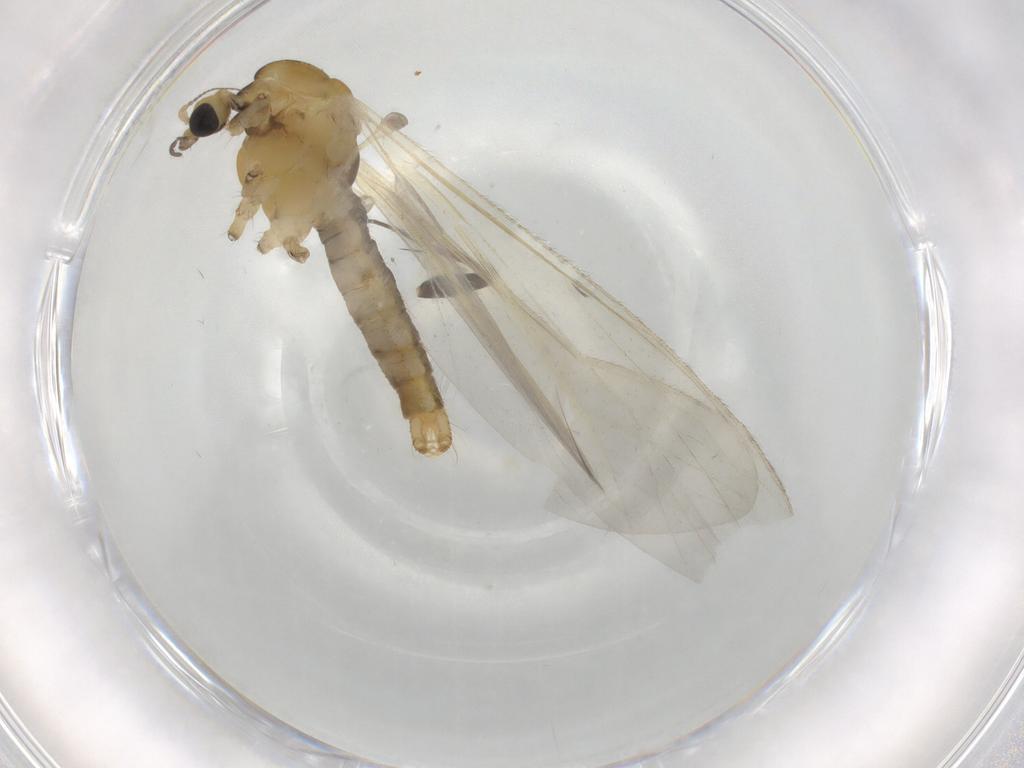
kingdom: Animalia
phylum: Arthropoda
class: Insecta
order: Diptera
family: Limoniidae
